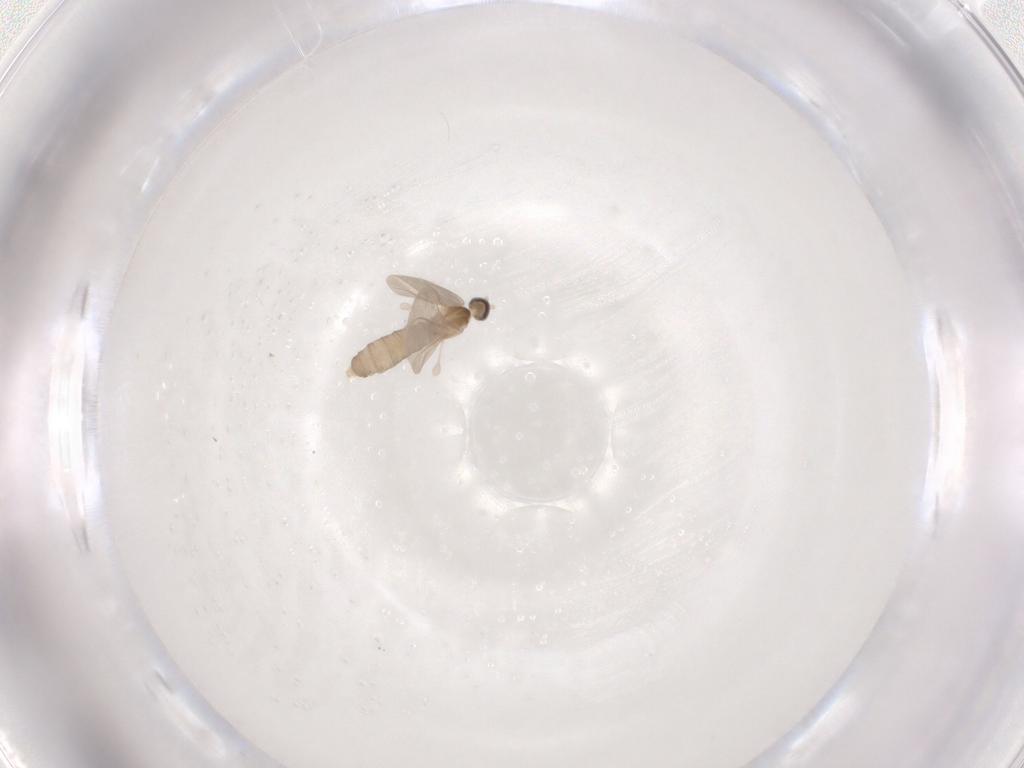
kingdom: Animalia
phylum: Arthropoda
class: Insecta
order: Diptera
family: Chironomidae
